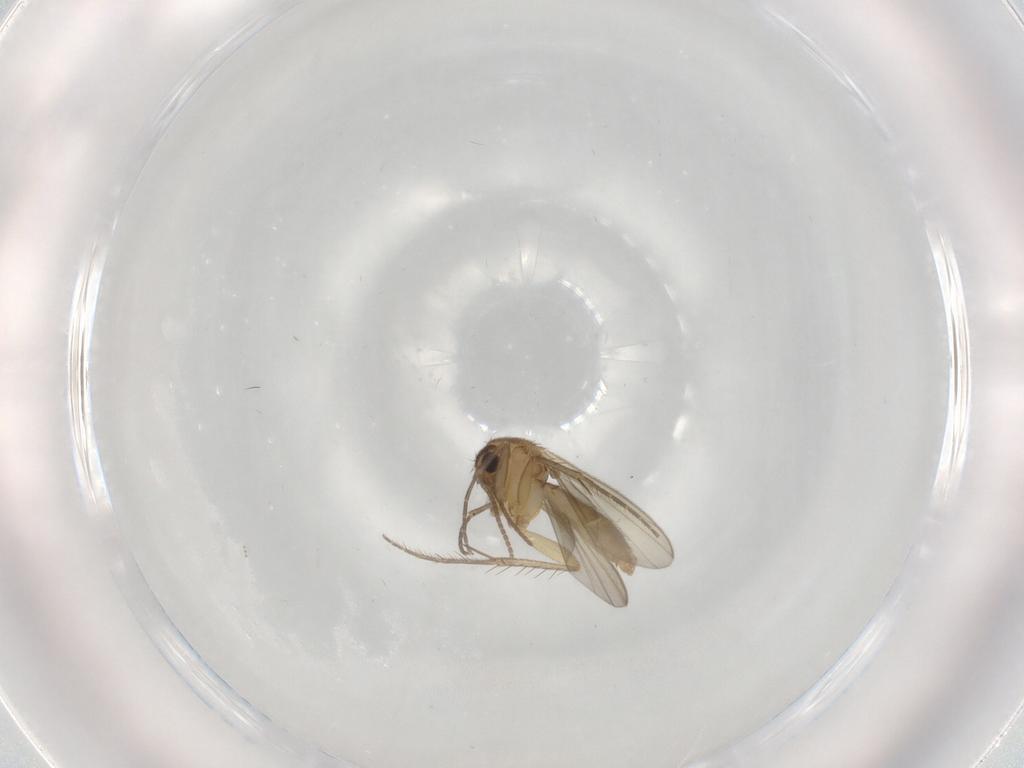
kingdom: Animalia
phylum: Arthropoda
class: Insecta
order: Diptera
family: Mycetophilidae
